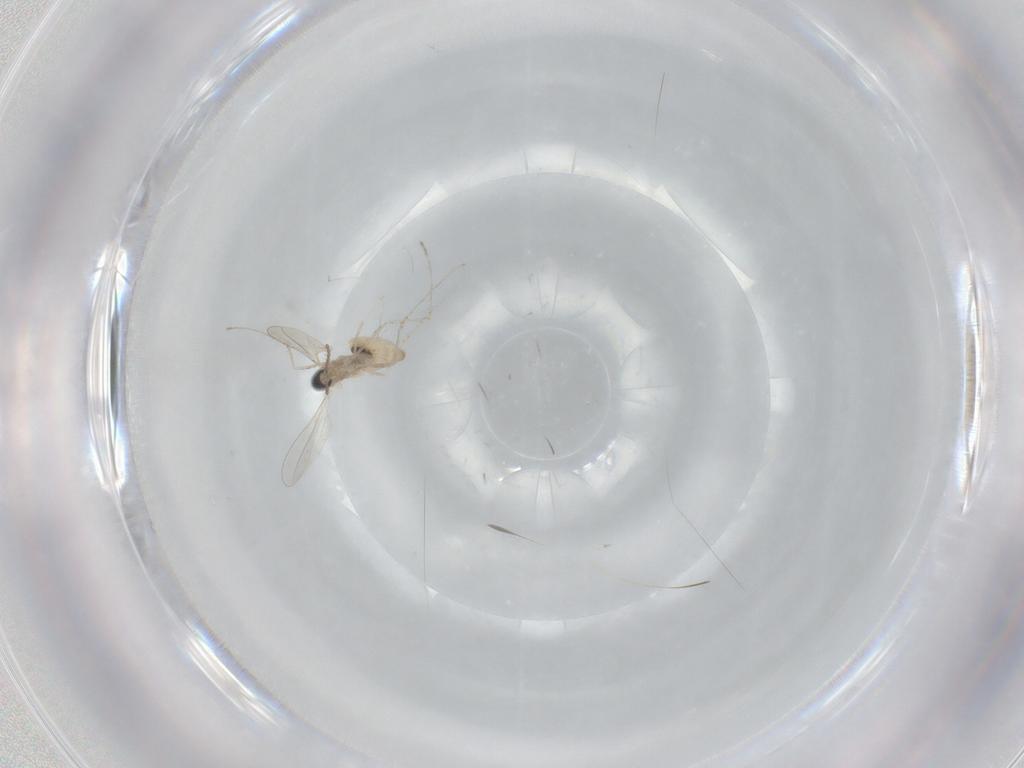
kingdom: Animalia
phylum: Arthropoda
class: Insecta
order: Diptera
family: Cecidomyiidae
